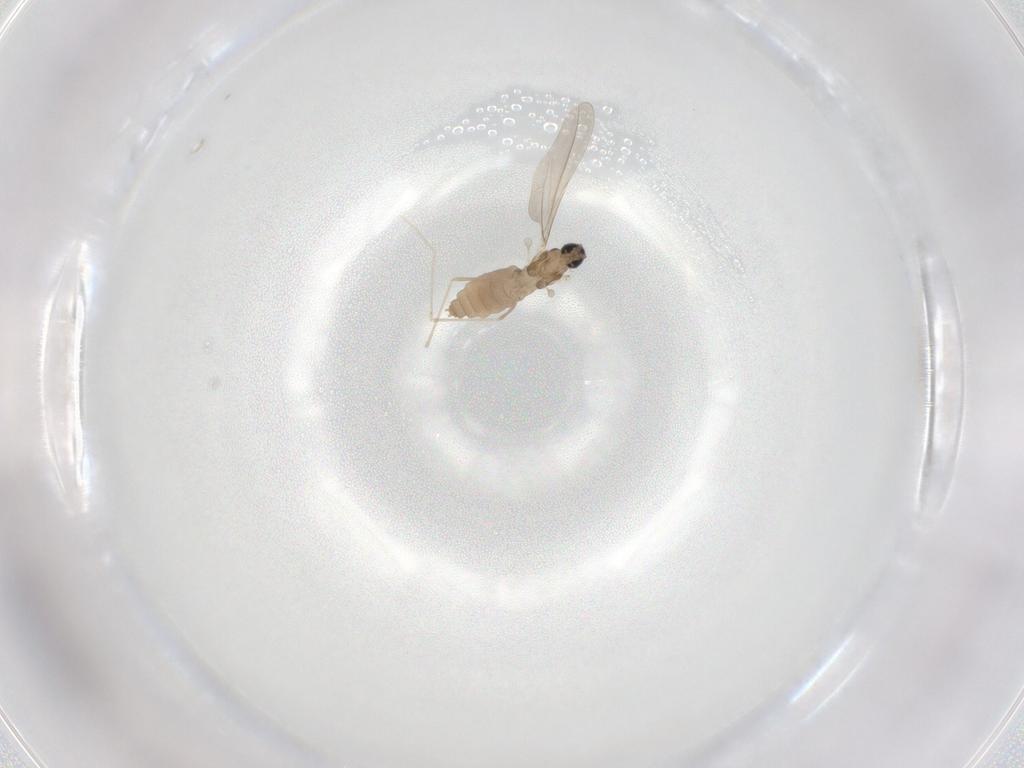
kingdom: Animalia
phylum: Arthropoda
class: Insecta
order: Diptera
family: Cecidomyiidae
